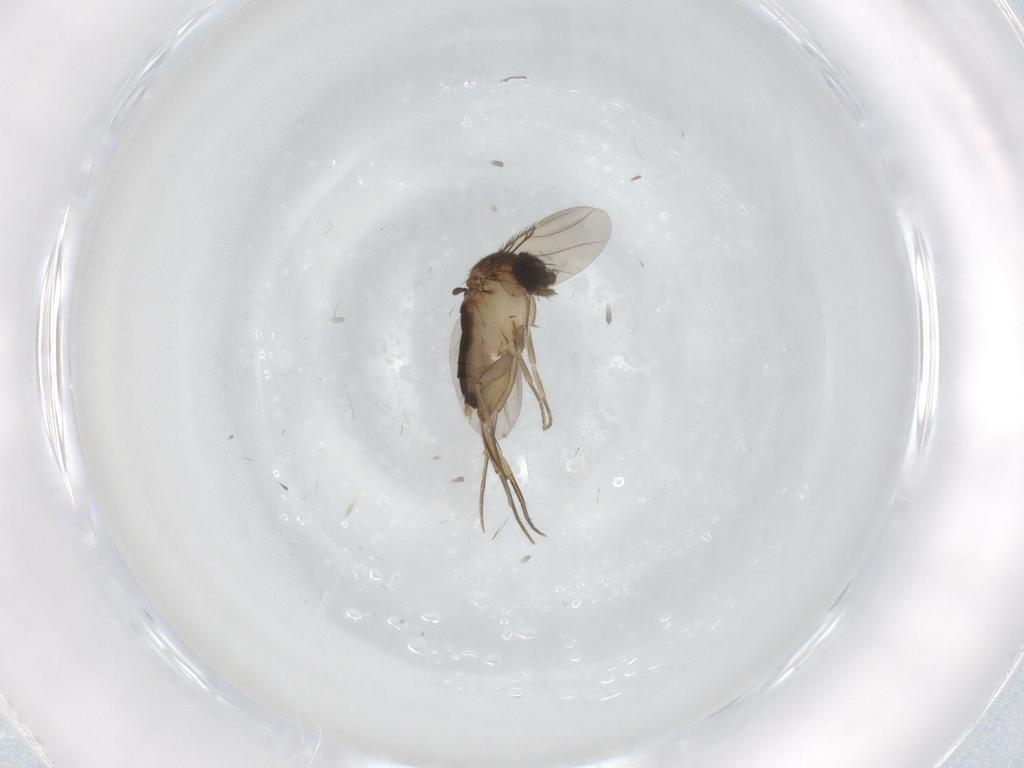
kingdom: Animalia
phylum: Arthropoda
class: Insecta
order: Diptera
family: Phoridae
